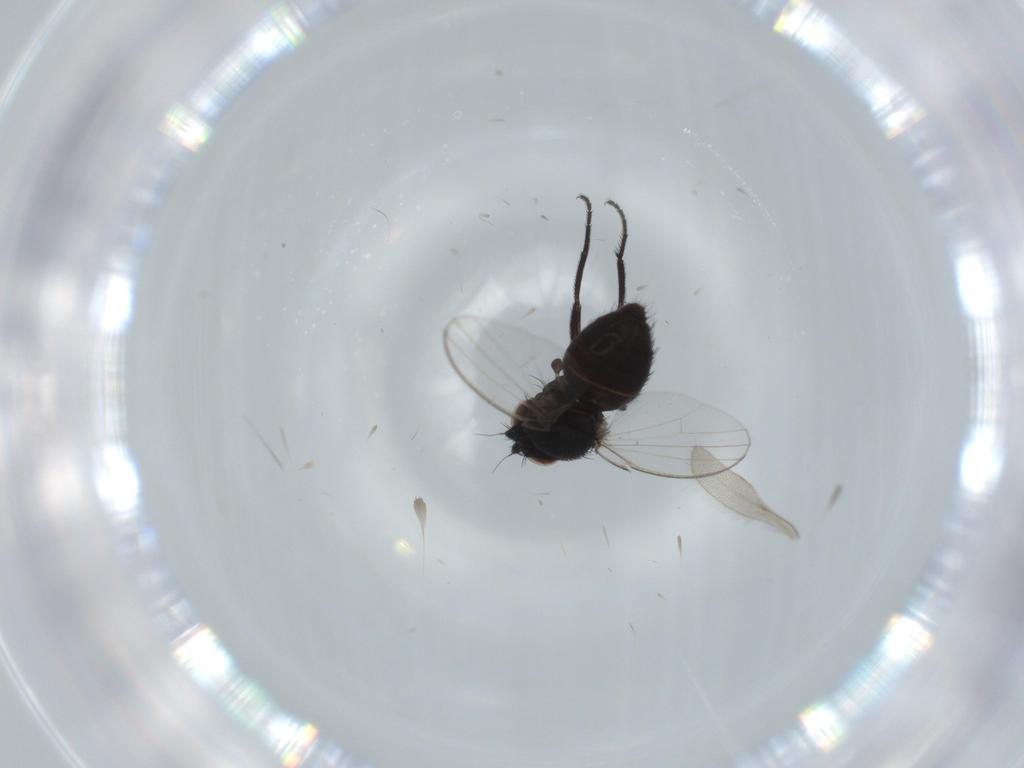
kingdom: Animalia
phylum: Arthropoda
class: Insecta
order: Diptera
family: Milichiidae
